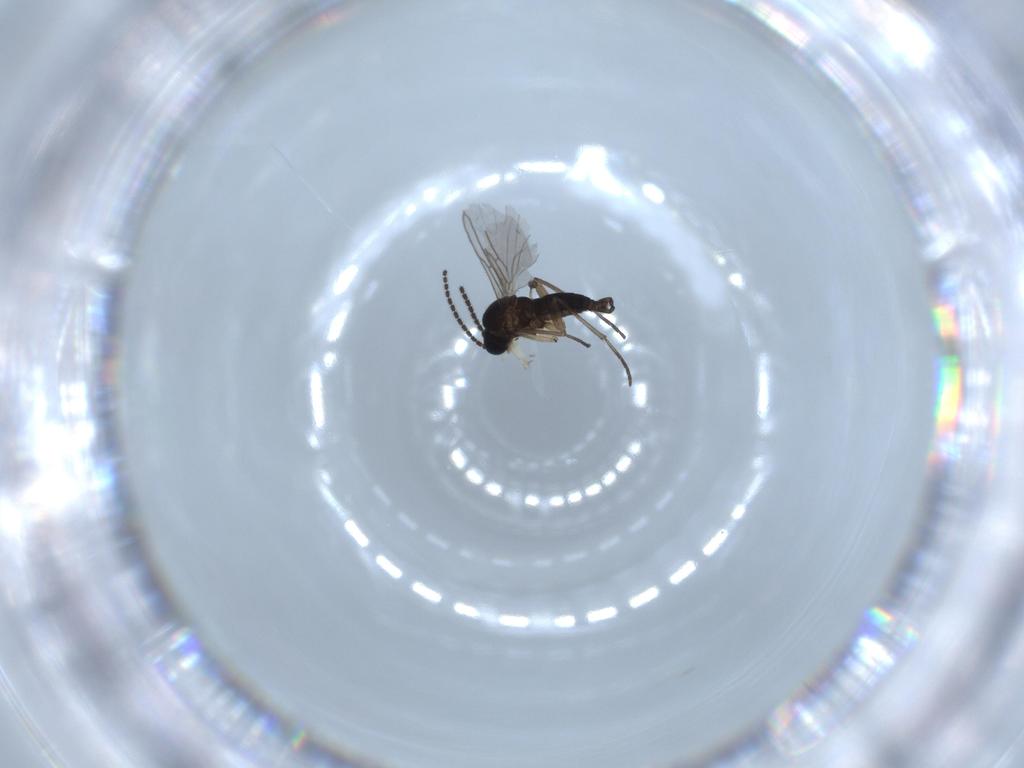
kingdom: Animalia
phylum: Arthropoda
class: Insecta
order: Diptera
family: Sciaridae
